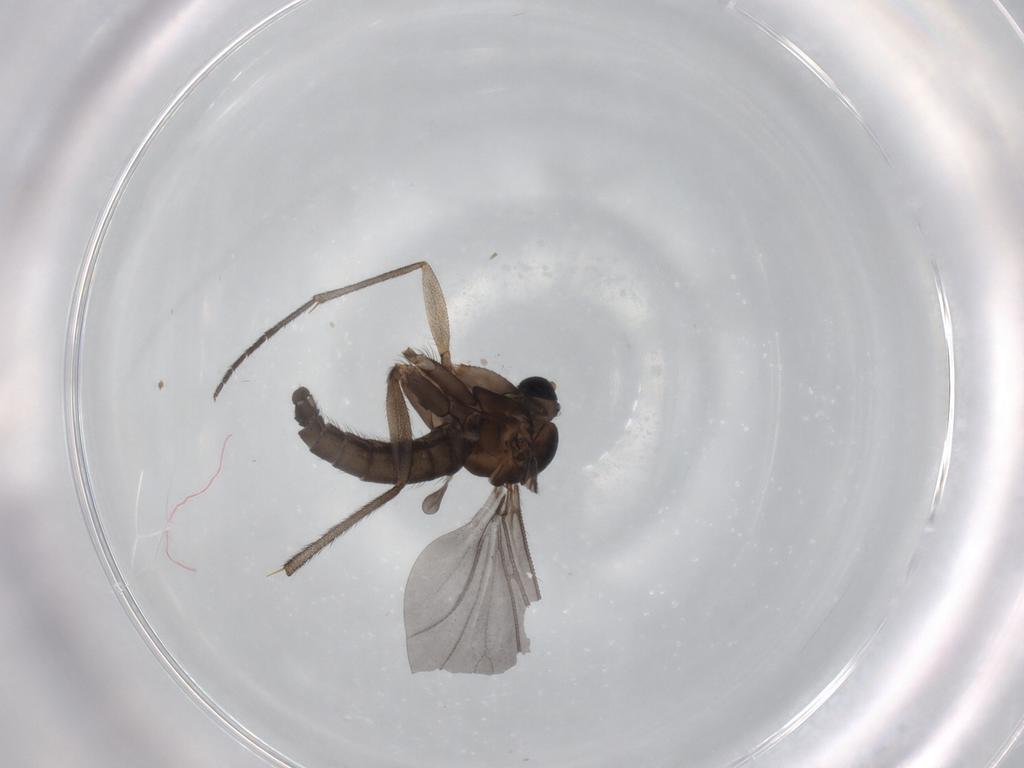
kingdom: Animalia
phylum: Arthropoda
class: Insecta
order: Diptera
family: Sciaridae
